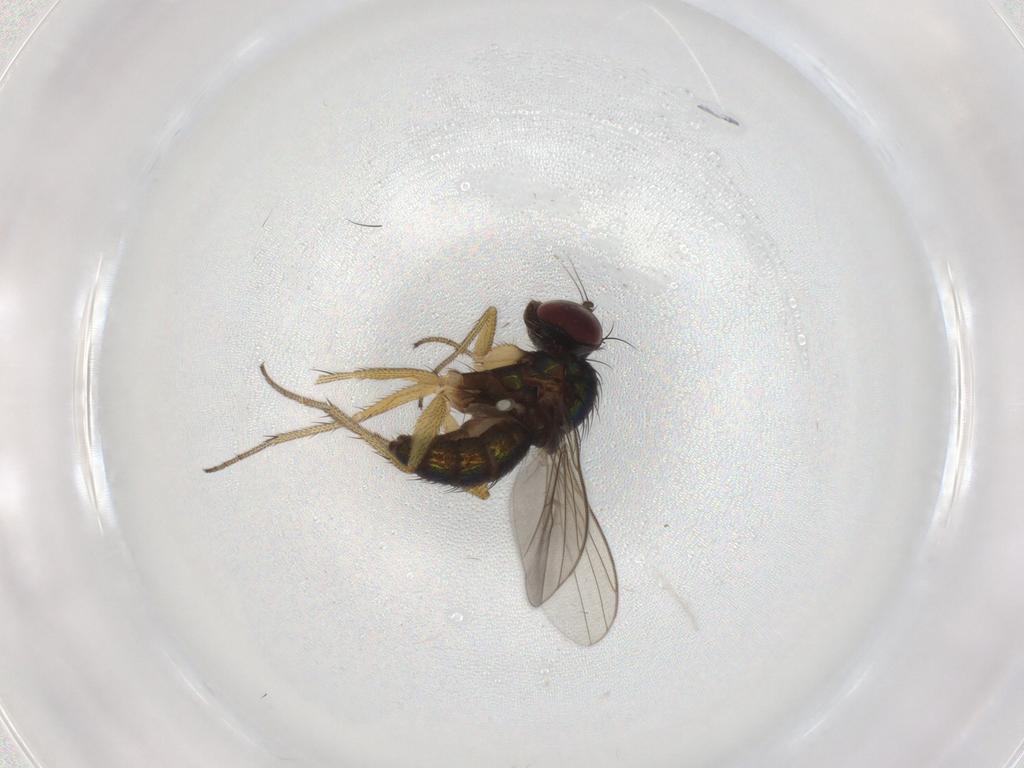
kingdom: Animalia
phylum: Arthropoda
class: Insecta
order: Diptera
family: Dolichopodidae
